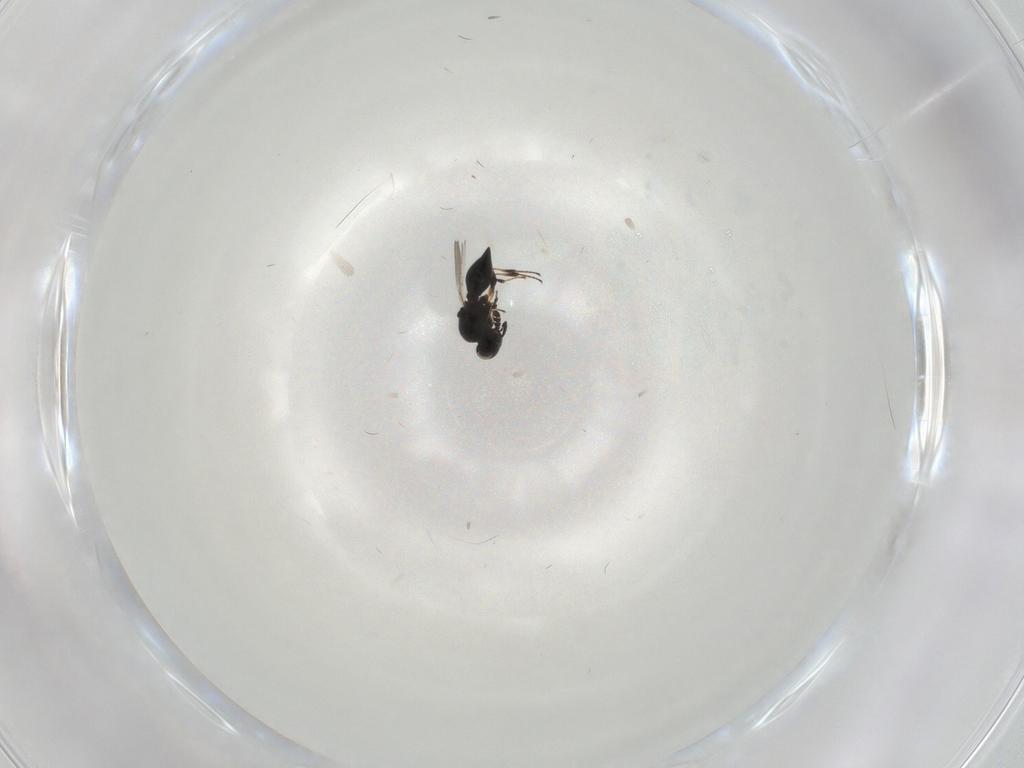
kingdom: Animalia
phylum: Arthropoda
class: Insecta
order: Hymenoptera
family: Platygastridae
